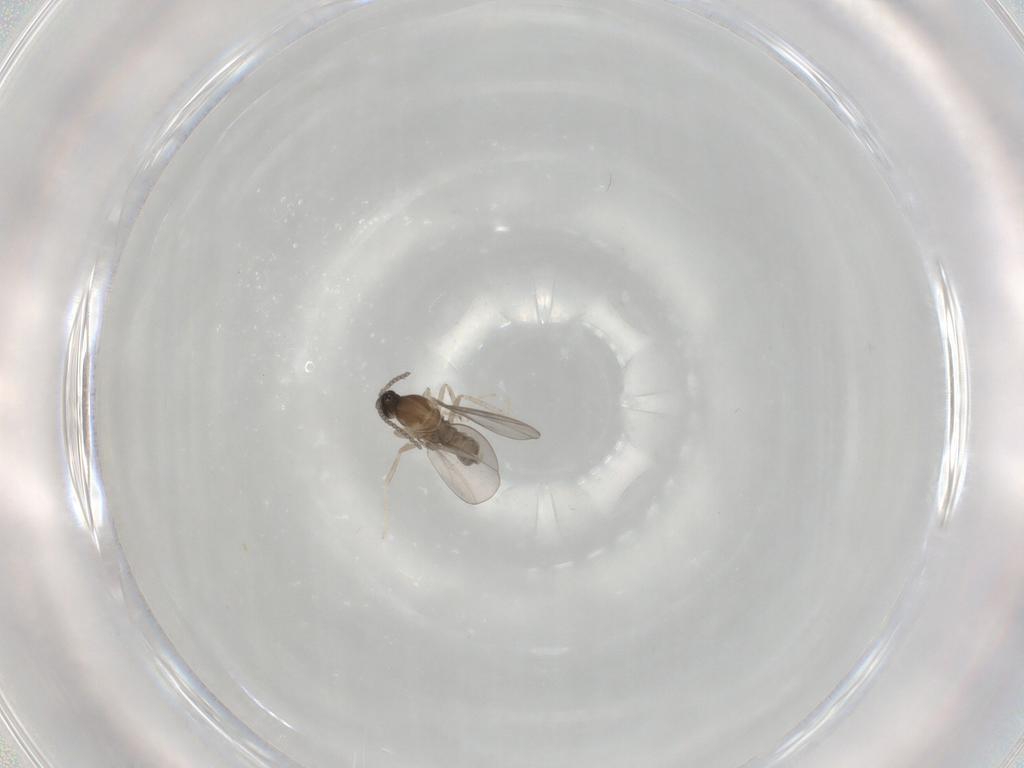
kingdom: Animalia
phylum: Arthropoda
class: Insecta
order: Diptera
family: Cecidomyiidae
